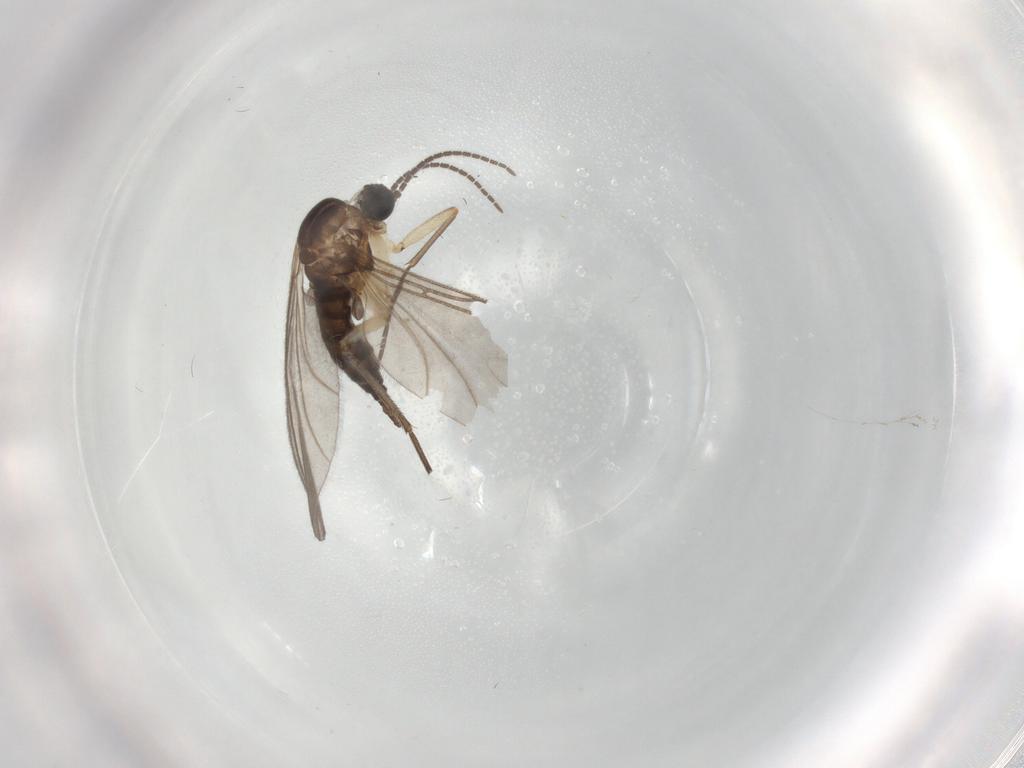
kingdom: Animalia
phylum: Arthropoda
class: Insecta
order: Diptera
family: Sciaridae
